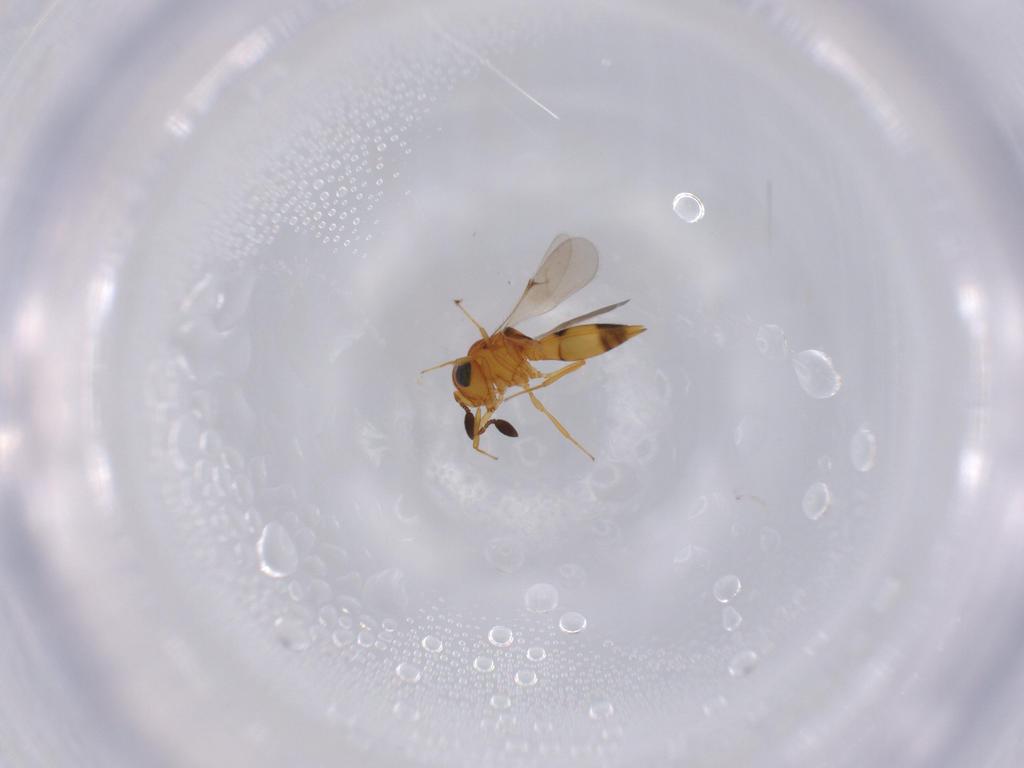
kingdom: Animalia
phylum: Arthropoda
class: Insecta
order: Hymenoptera
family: Scelionidae
